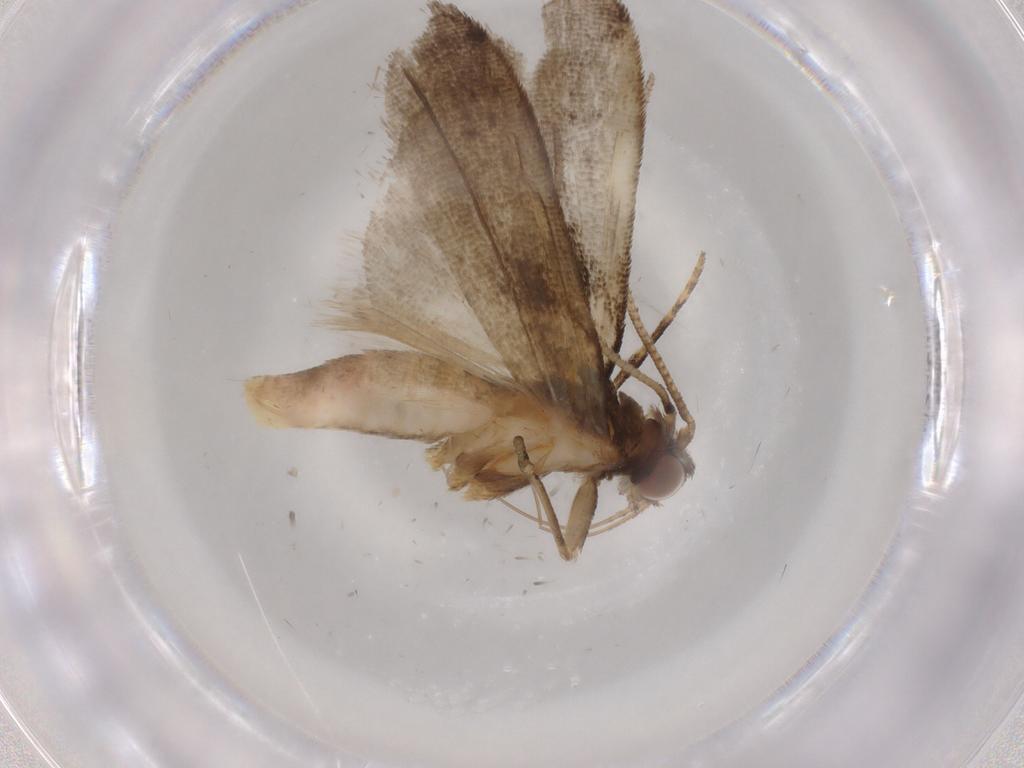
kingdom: Animalia
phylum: Arthropoda
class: Insecta
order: Lepidoptera
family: Noctuidae
